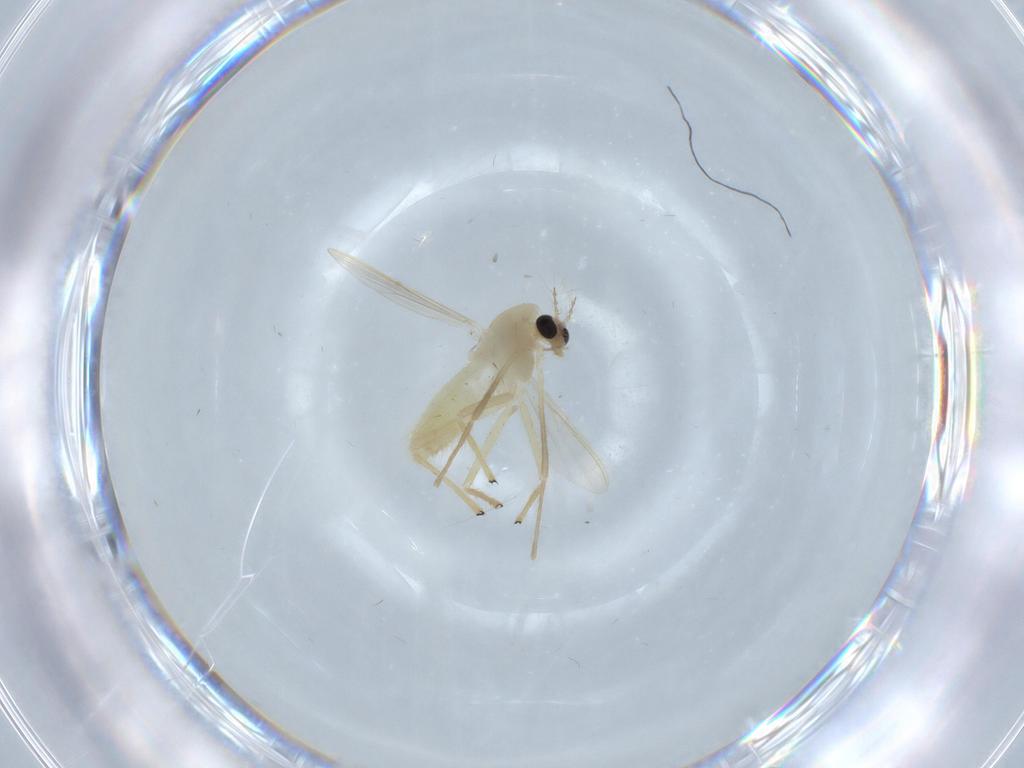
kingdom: Animalia
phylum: Arthropoda
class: Insecta
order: Diptera
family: Chironomidae
